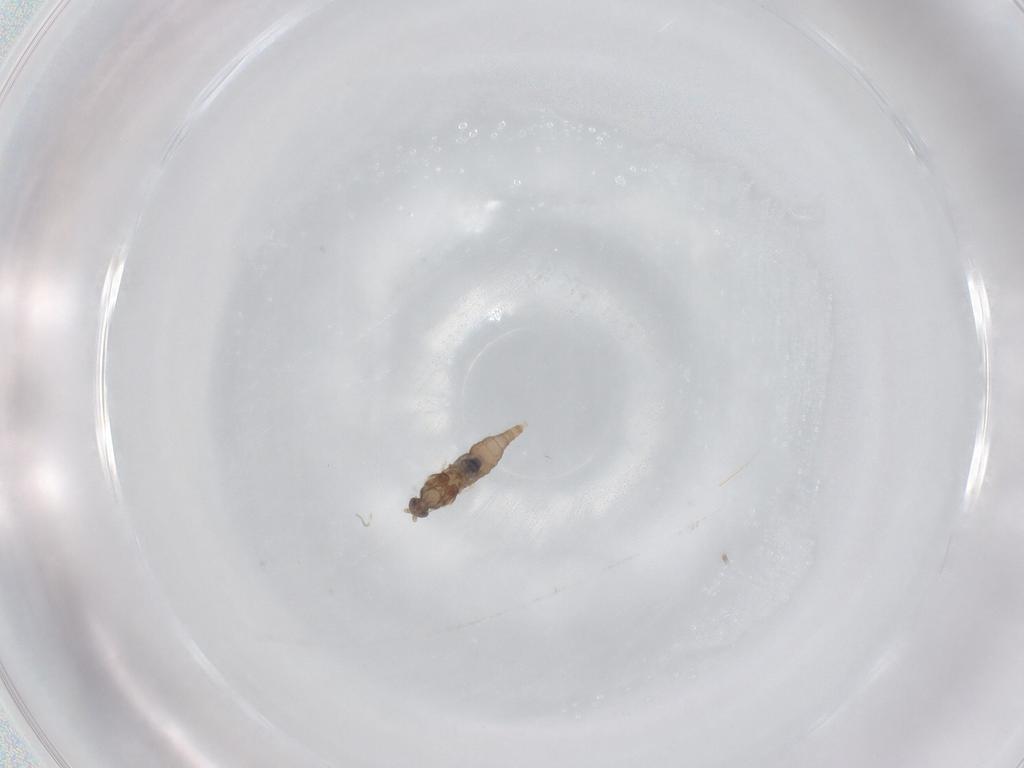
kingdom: Animalia
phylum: Arthropoda
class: Insecta
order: Diptera
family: Cecidomyiidae
